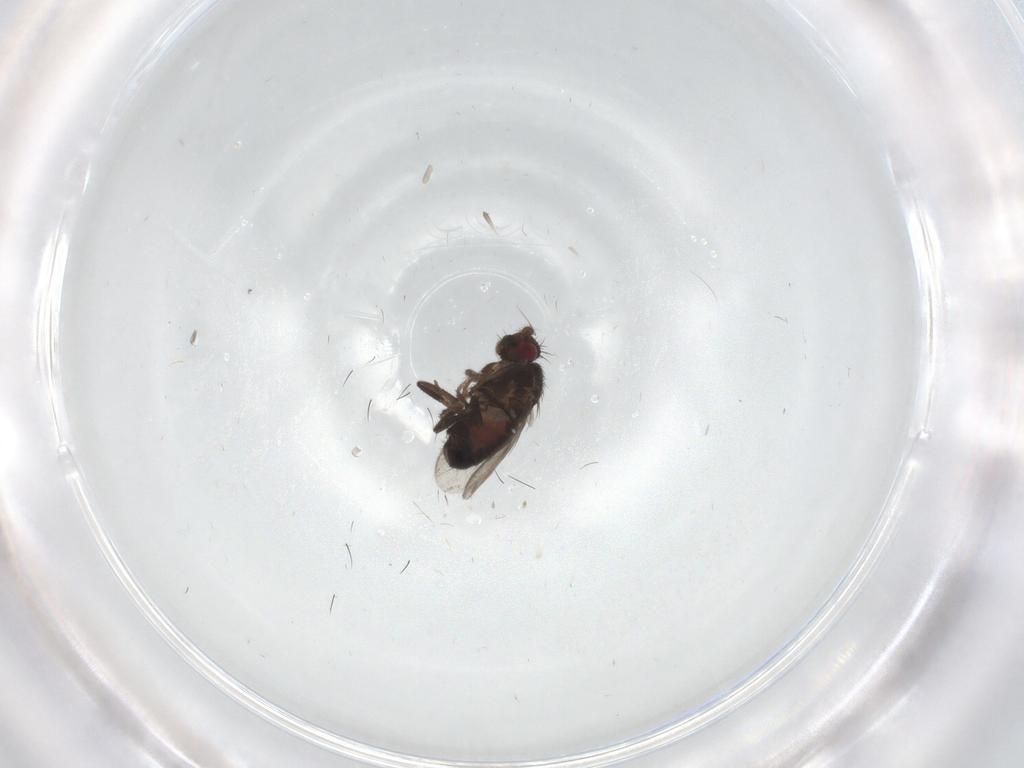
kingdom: Animalia
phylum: Arthropoda
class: Insecta
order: Diptera
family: Sphaeroceridae
